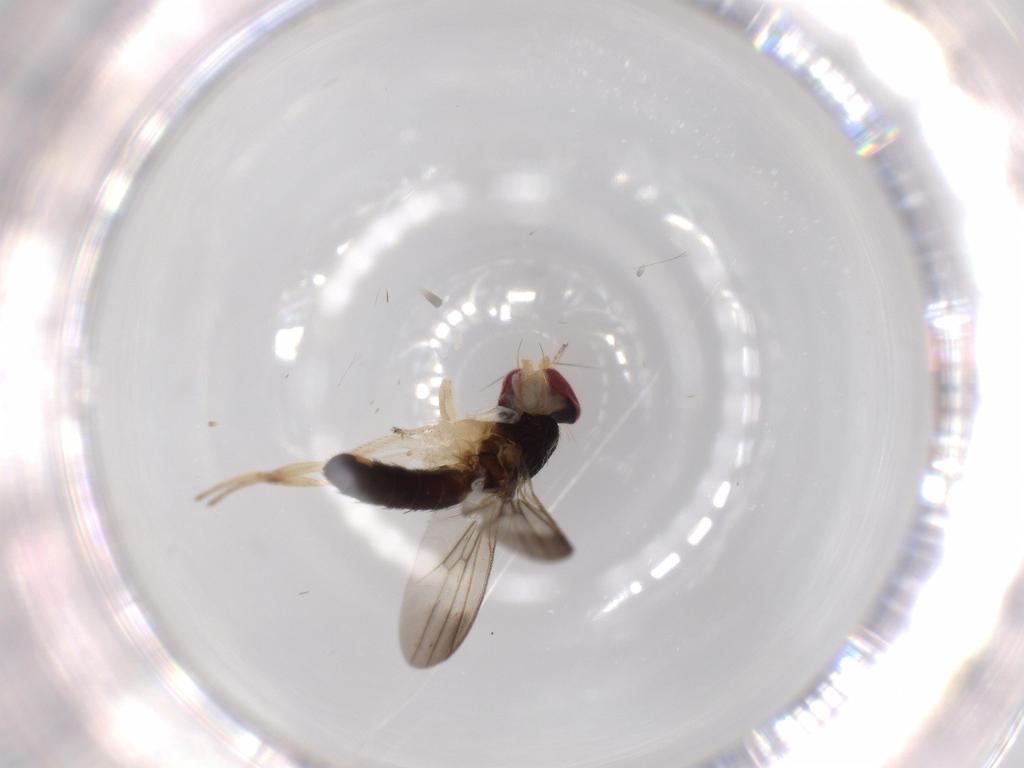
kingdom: Animalia
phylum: Arthropoda
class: Insecta
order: Diptera
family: Clusiidae
